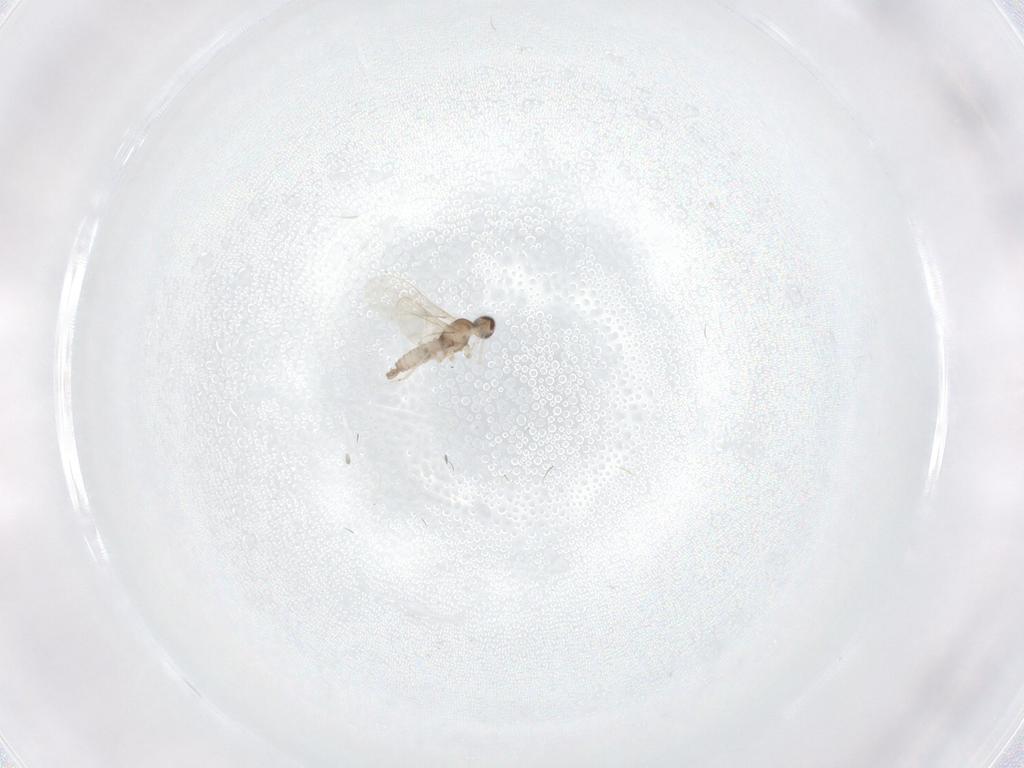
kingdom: Animalia
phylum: Arthropoda
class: Insecta
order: Diptera
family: Cecidomyiidae
